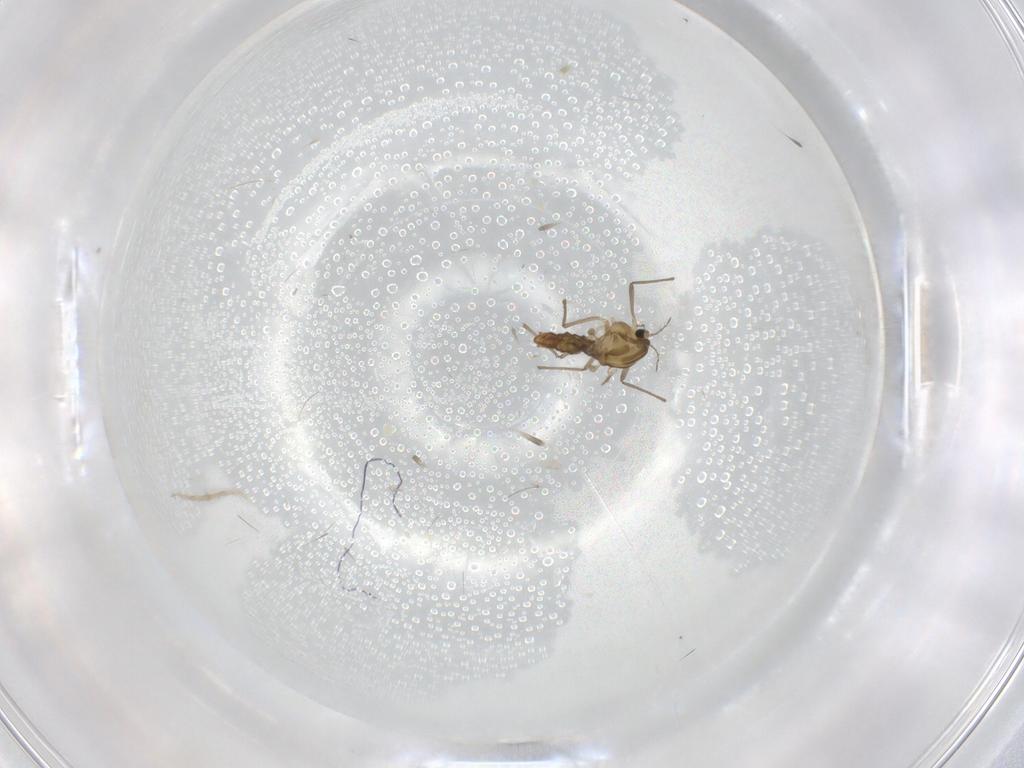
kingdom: Animalia
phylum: Arthropoda
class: Insecta
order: Diptera
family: Chironomidae
